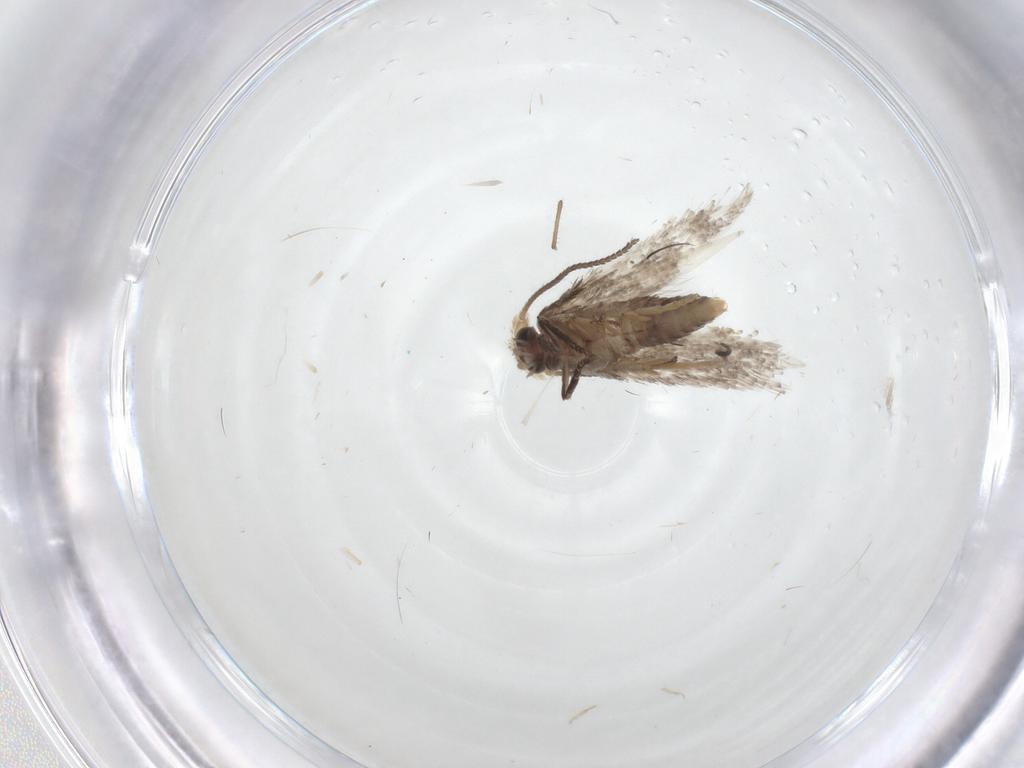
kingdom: Animalia
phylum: Arthropoda
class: Insecta
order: Lepidoptera
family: Nepticulidae
